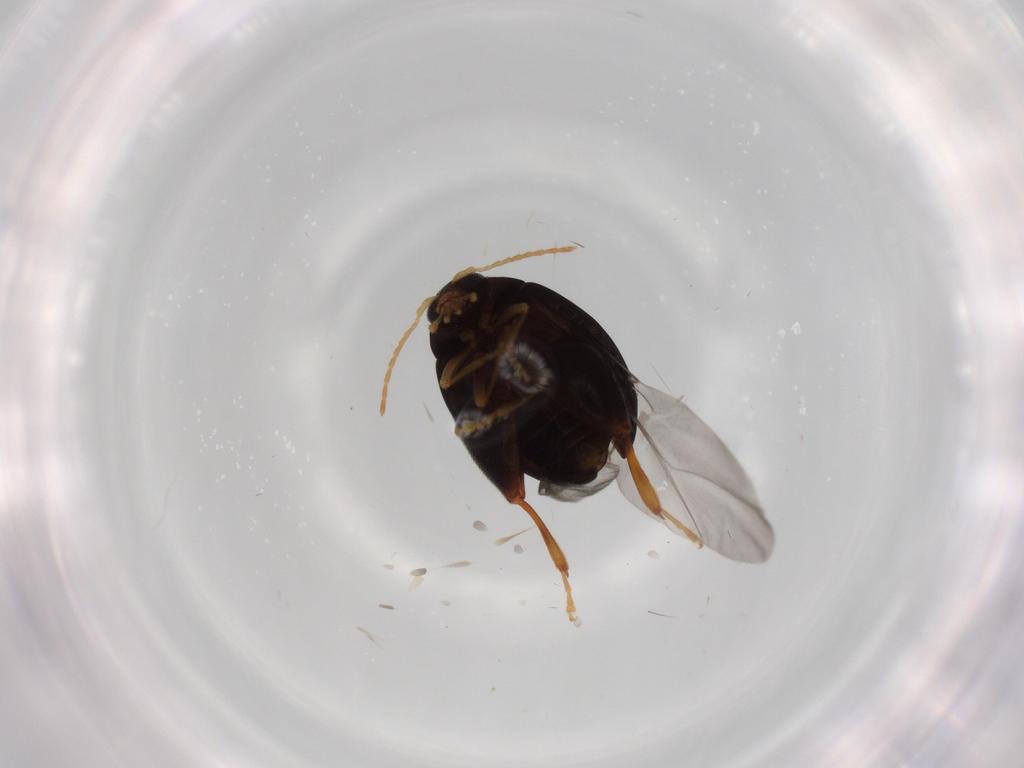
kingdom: Animalia
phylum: Arthropoda
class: Insecta
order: Coleoptera
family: Chrysomelidae
